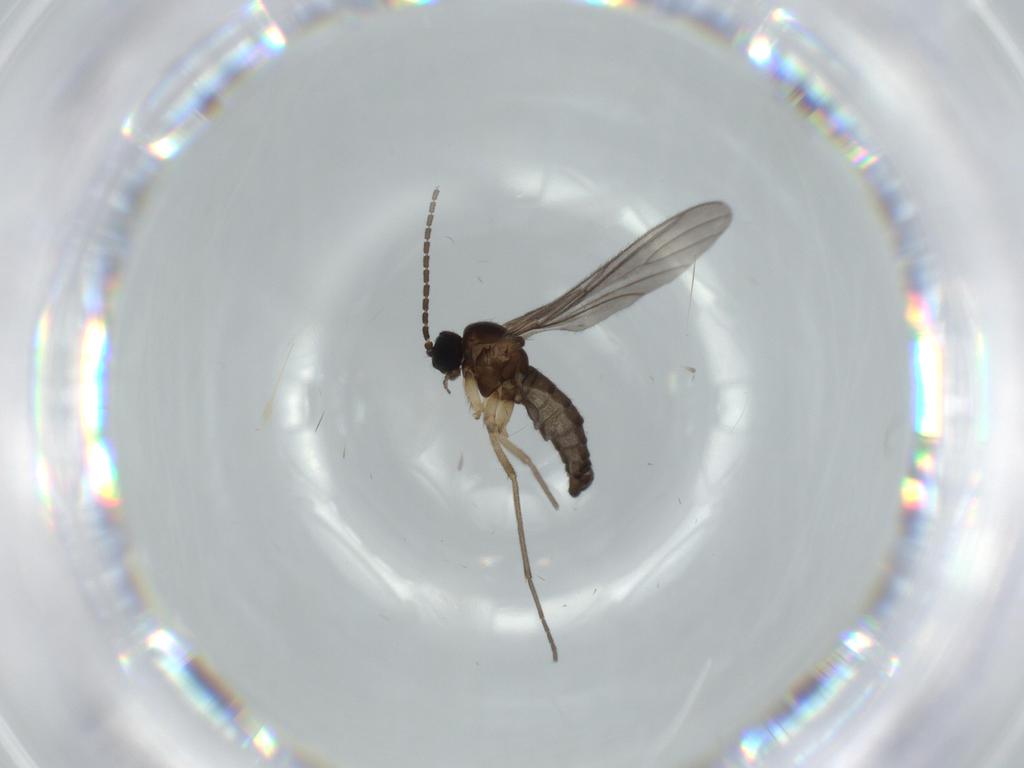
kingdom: Animalia
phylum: Arthropoda
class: Insecta
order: Diptera
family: Sciaridae
